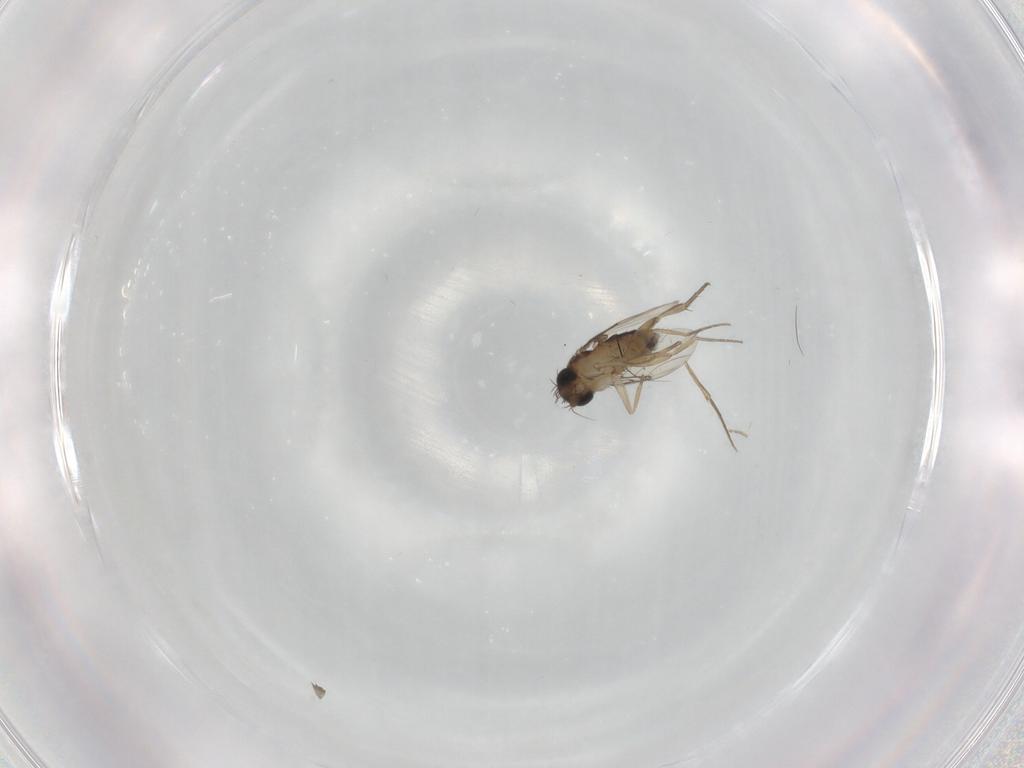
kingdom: Animalia
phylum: Arthropoda
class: Insecta
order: Diptera
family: Phoridae
